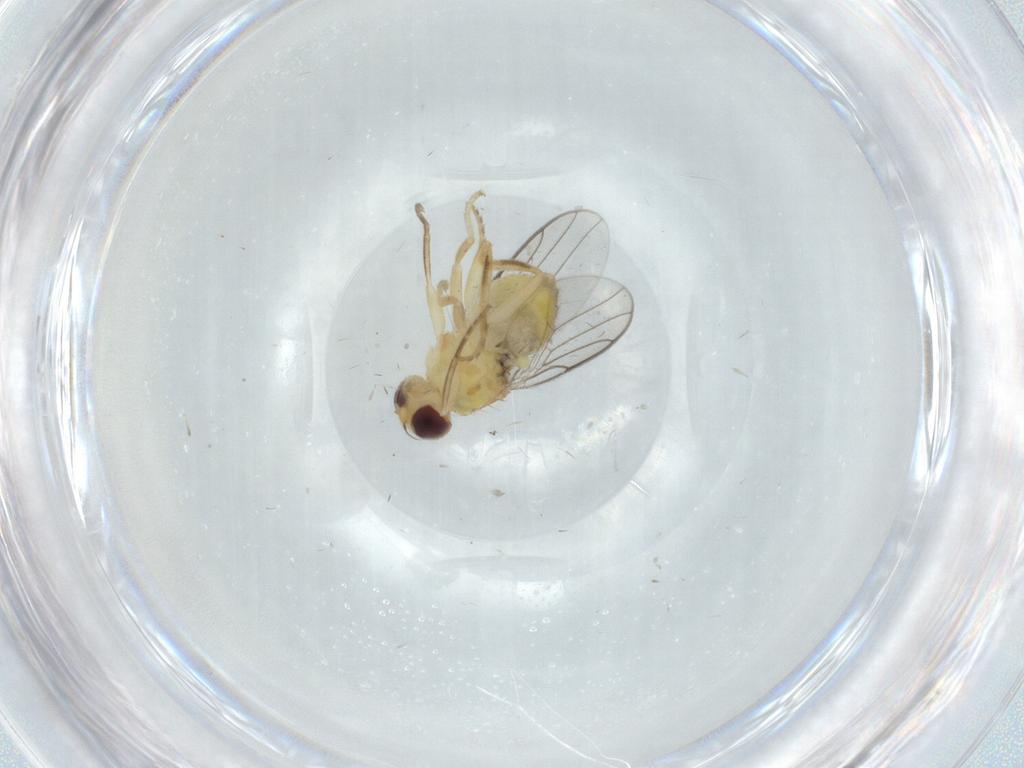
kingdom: Animalia
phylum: Arthropoda
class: Insecta
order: Diptera
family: Chloropidae
